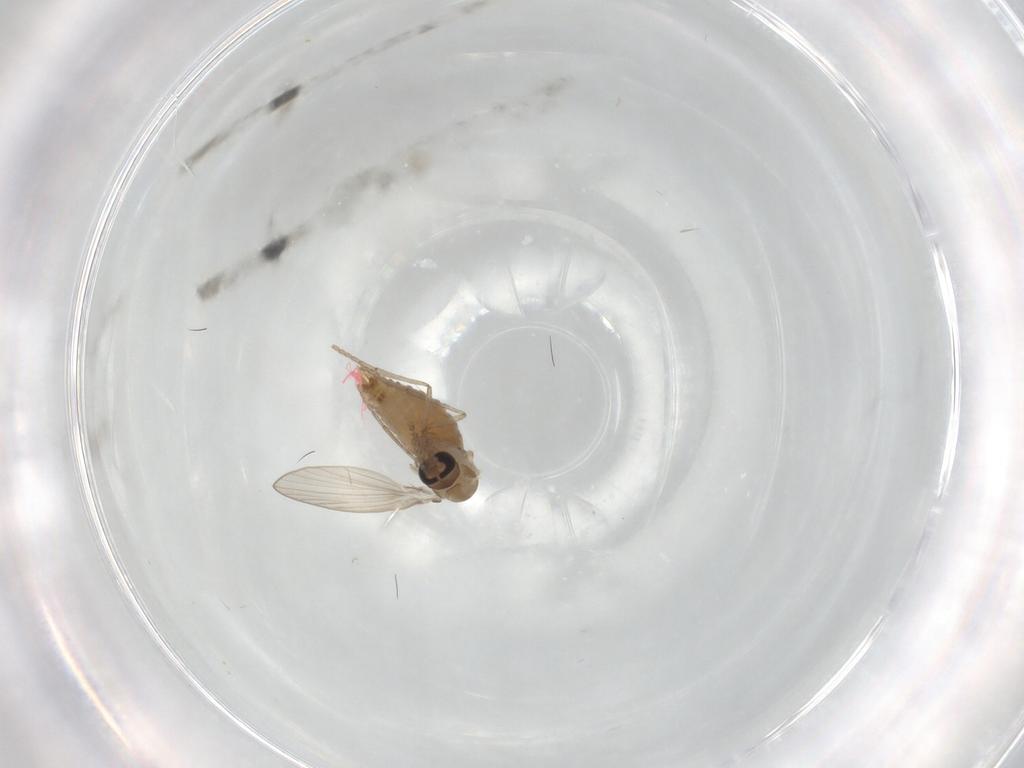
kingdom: Animalia
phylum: Arthropoda
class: Insecta
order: Diptera
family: Psychodidae
